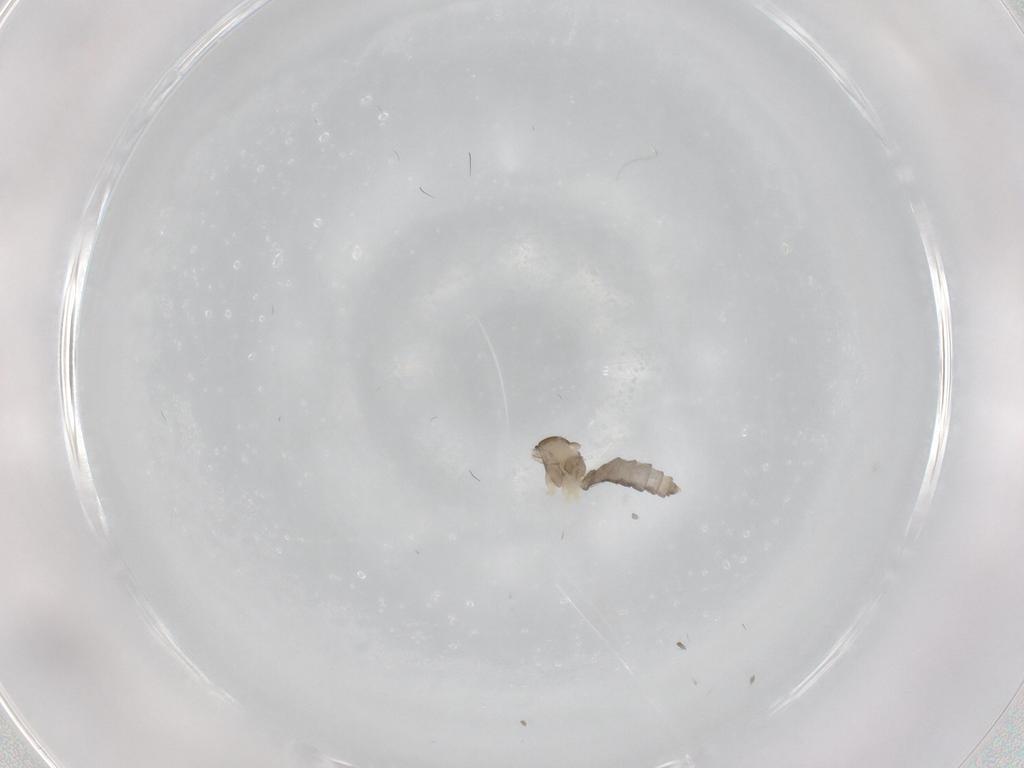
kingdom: Animalia
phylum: Arthropoda
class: Insecta
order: Diptera
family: Cecidomyiidae
